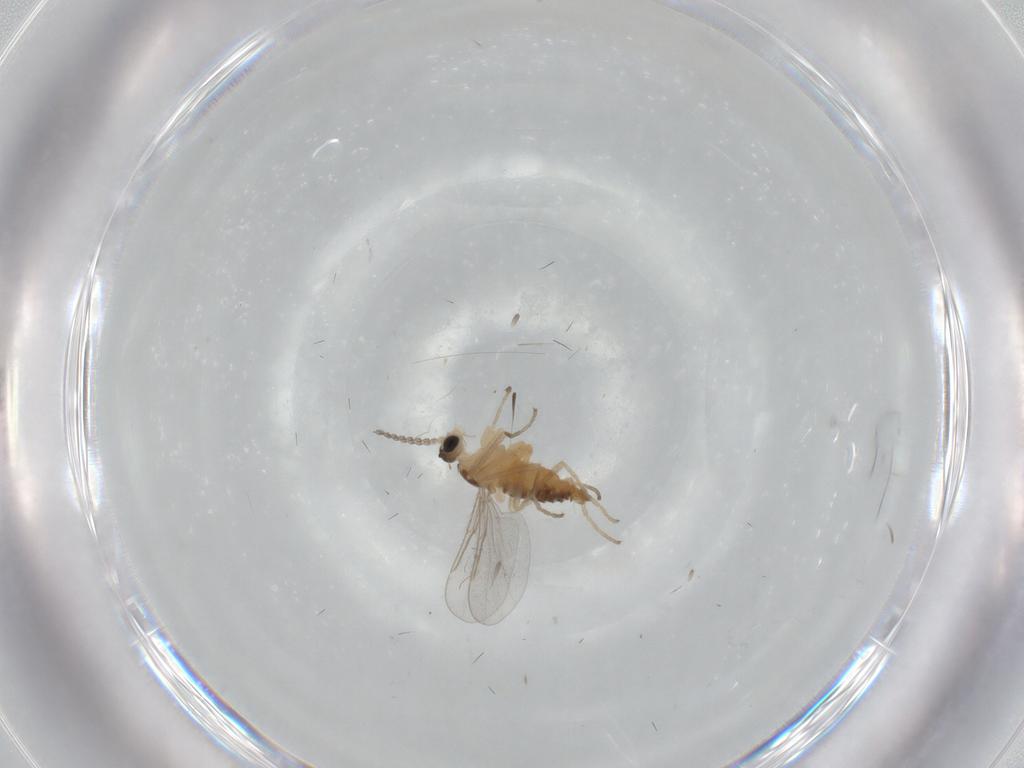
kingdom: Animalia
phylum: Arthropoda
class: Insecta
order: Diptera
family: Cecidomyiidae
